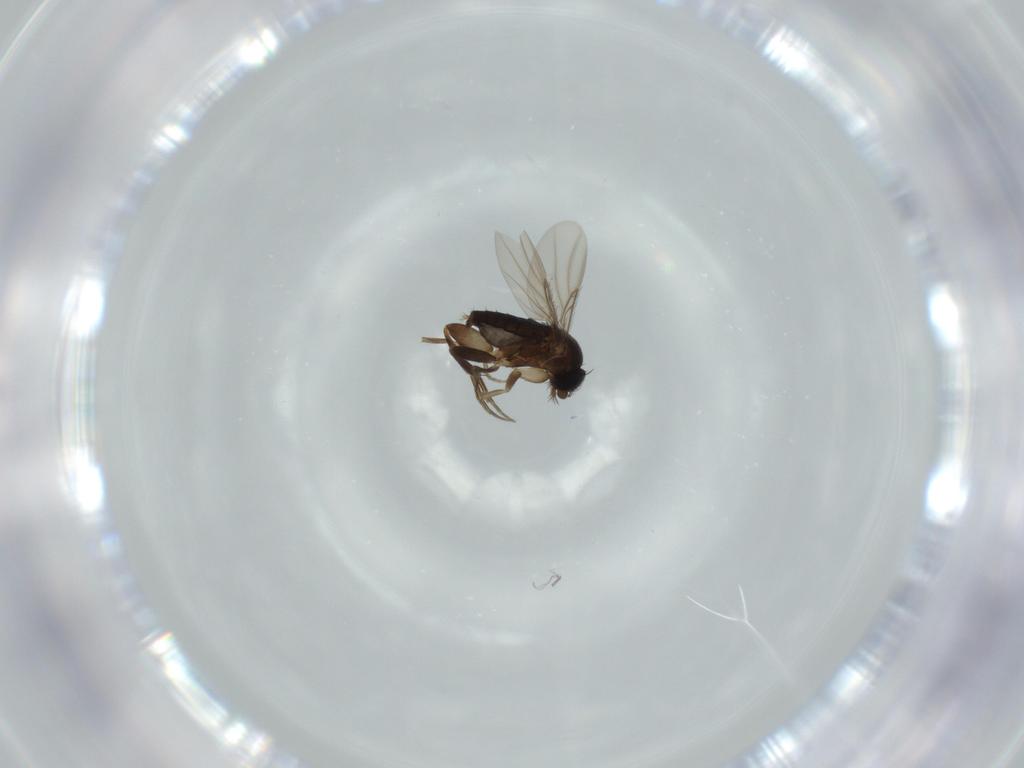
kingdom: Animalia
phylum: Arthropoda
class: Insecta
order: Diptera
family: Phoridae
